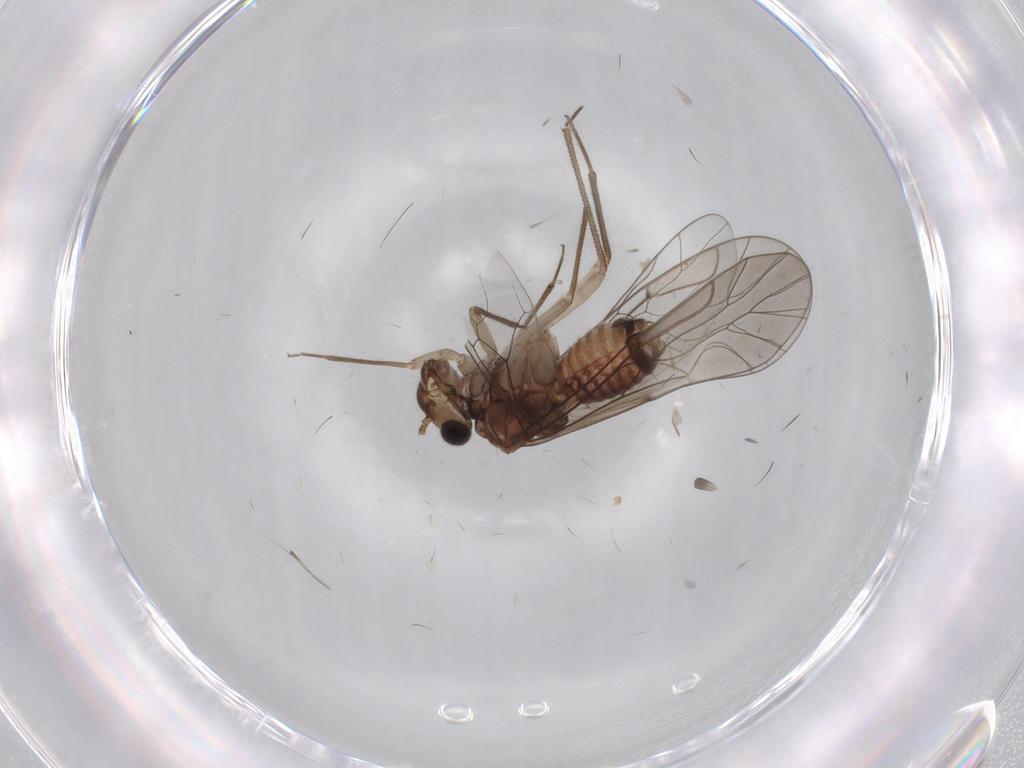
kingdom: Animalia
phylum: Arthropoda
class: Insecta
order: Psocodea
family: Lachesillidae
